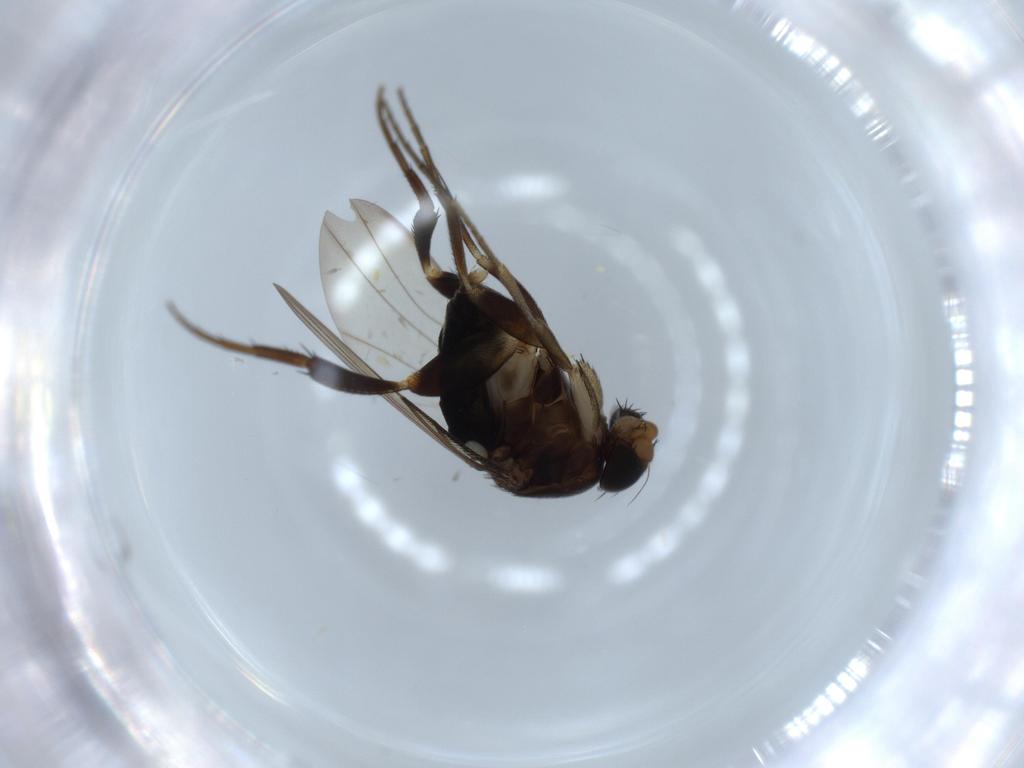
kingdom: Animalia
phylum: Arthropoda
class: Insecta
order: Diptera
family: Phoridae
